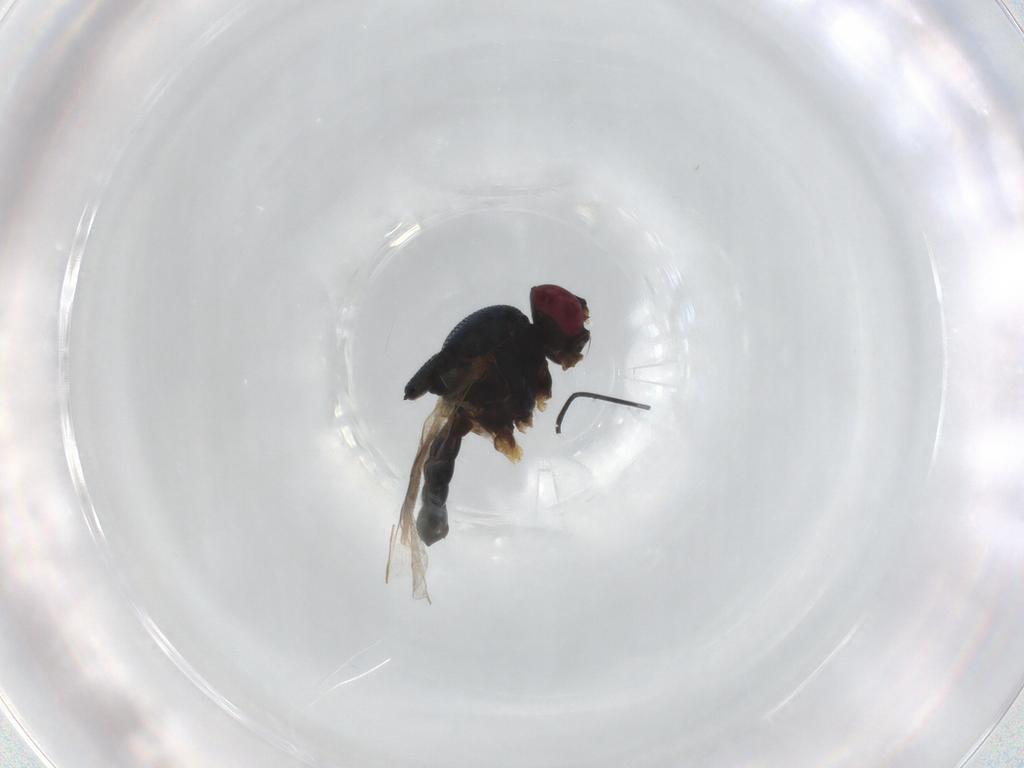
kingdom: Animalia
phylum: Arthropoda
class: Insecta
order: Diptera
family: Chloropidae
